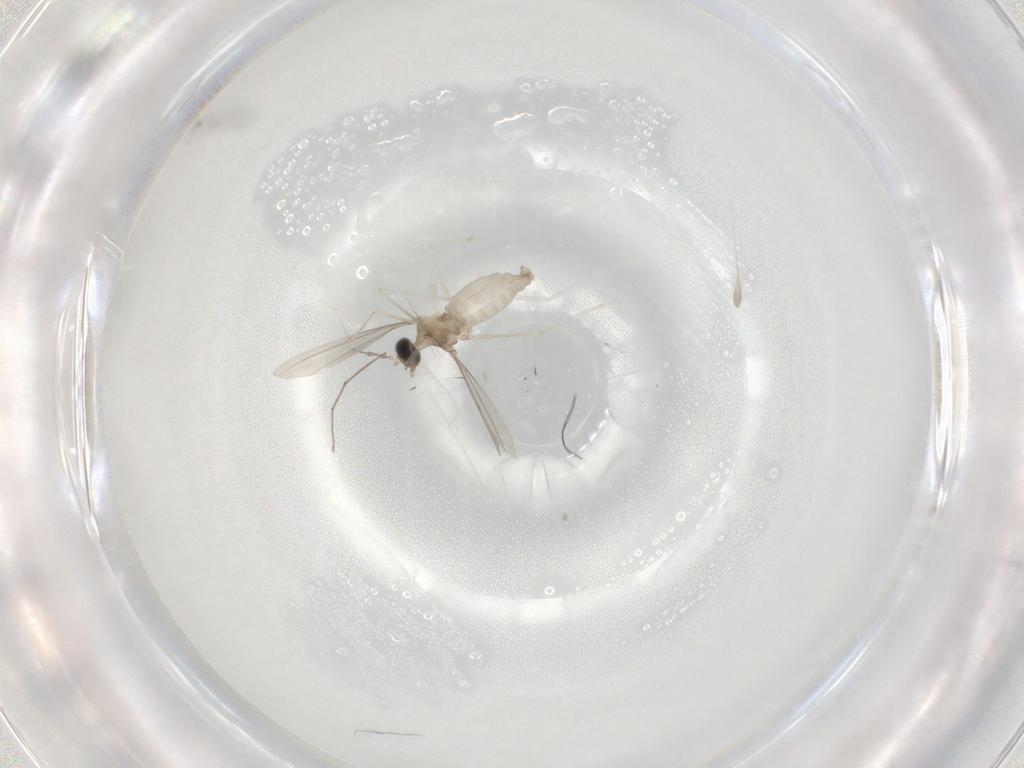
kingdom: Animalia
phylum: Arthropoda
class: Insecta
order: Diptera
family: Cecidomyiidae
